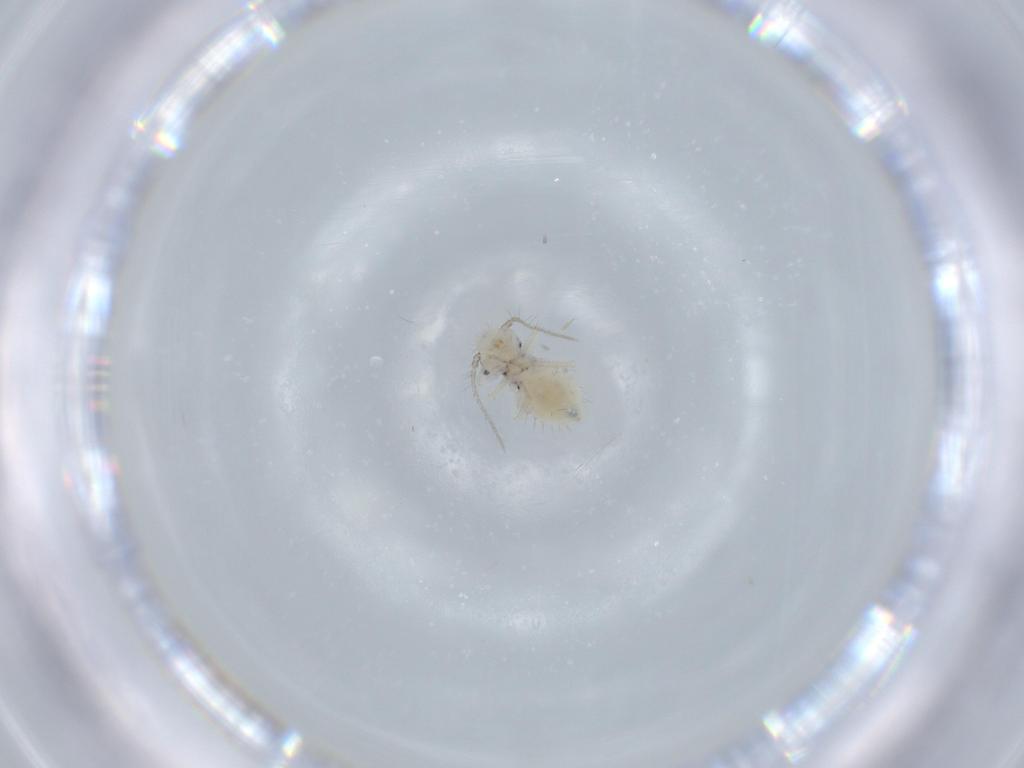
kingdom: Animalia
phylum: Arthropoda
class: Insecta
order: Psocodea
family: Pseudocaeciliidae
